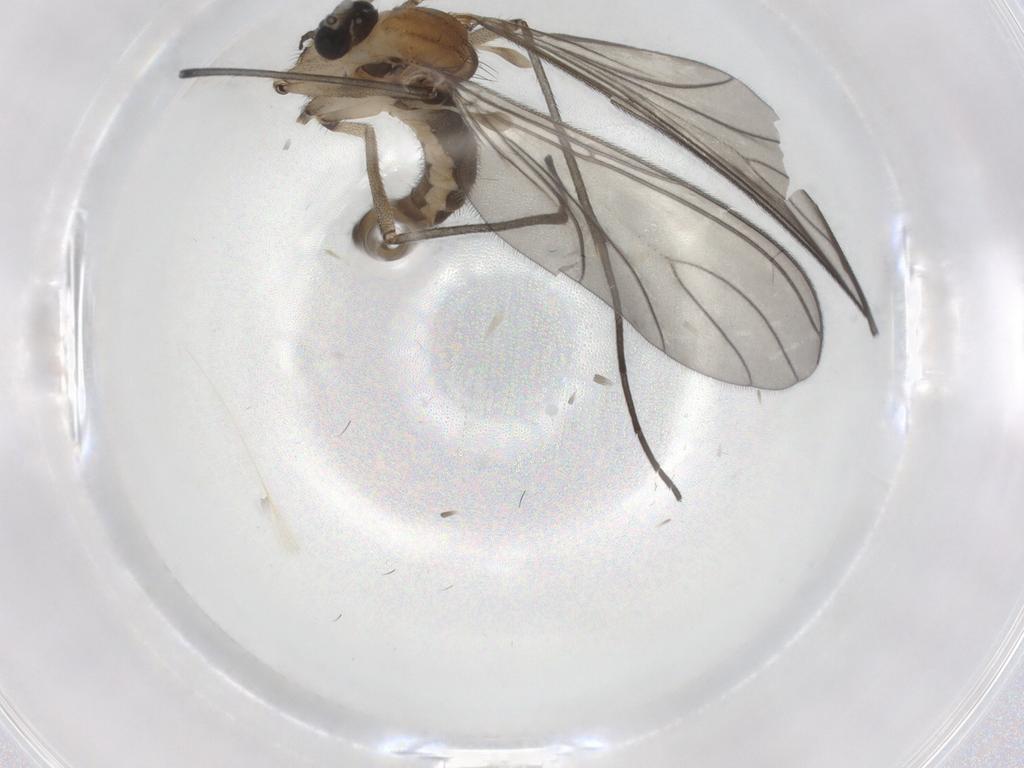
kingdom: Animalia
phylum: Arthropoda
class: Insecta
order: Diptera
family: Sciaridae
